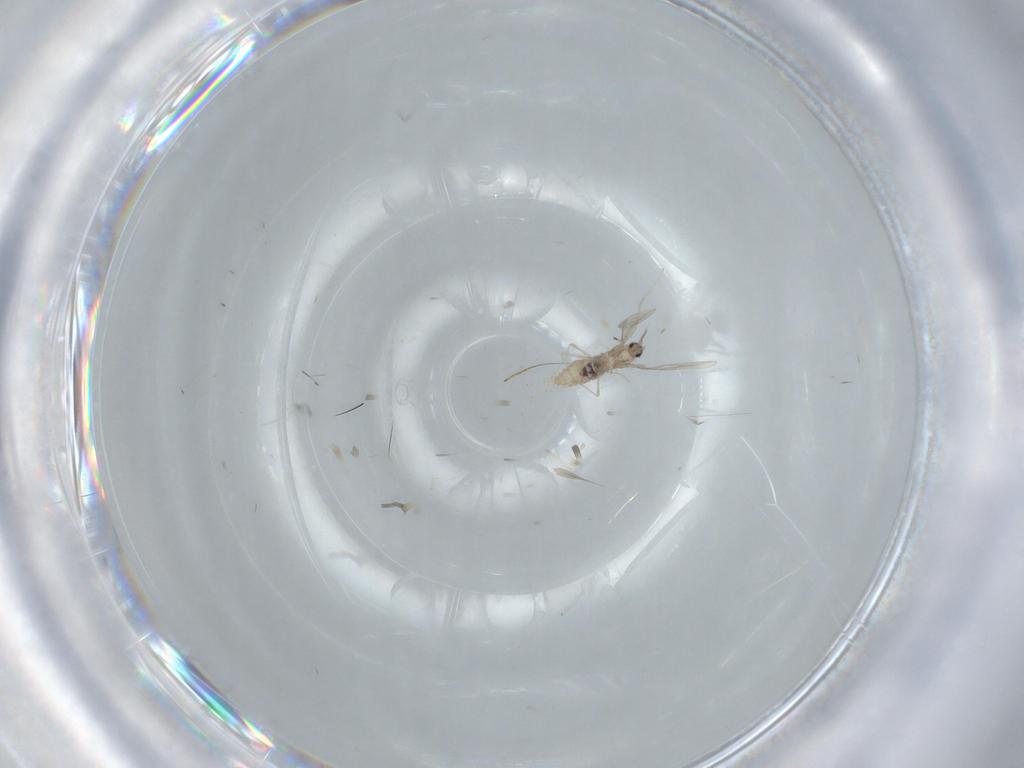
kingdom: Animalia
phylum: Arthropoda
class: Insecta
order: Diptera
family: Cecidomyiidae
